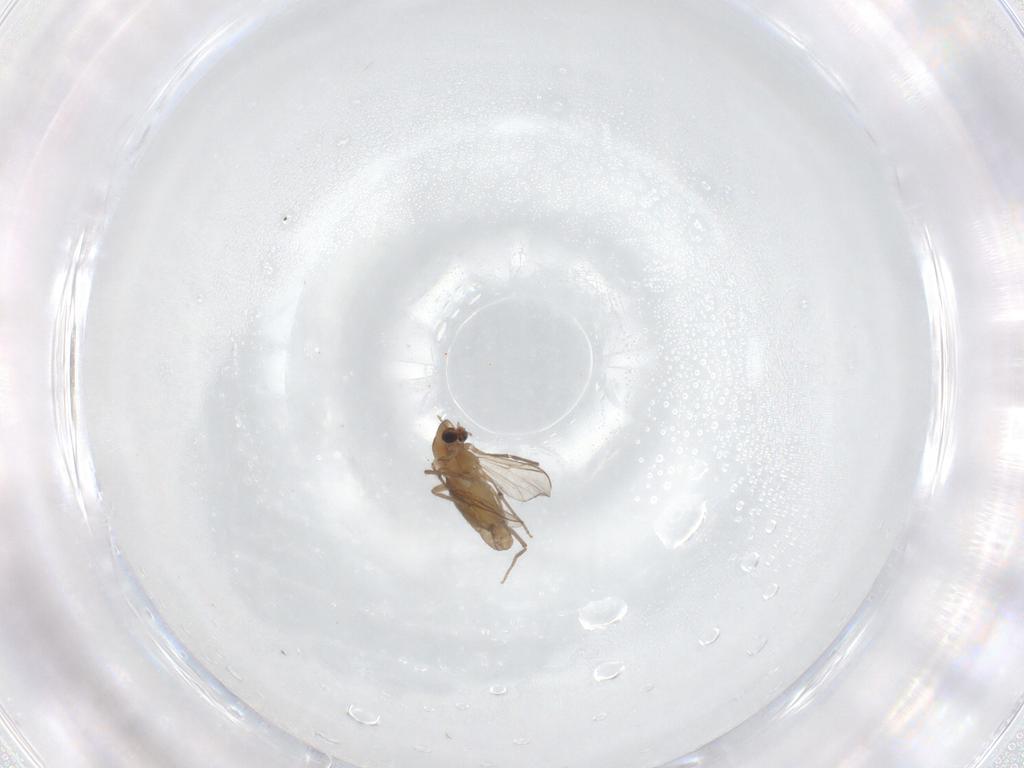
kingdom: Animalia
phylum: Arthropoda
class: Insecta
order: Diptera
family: Chironomidae
